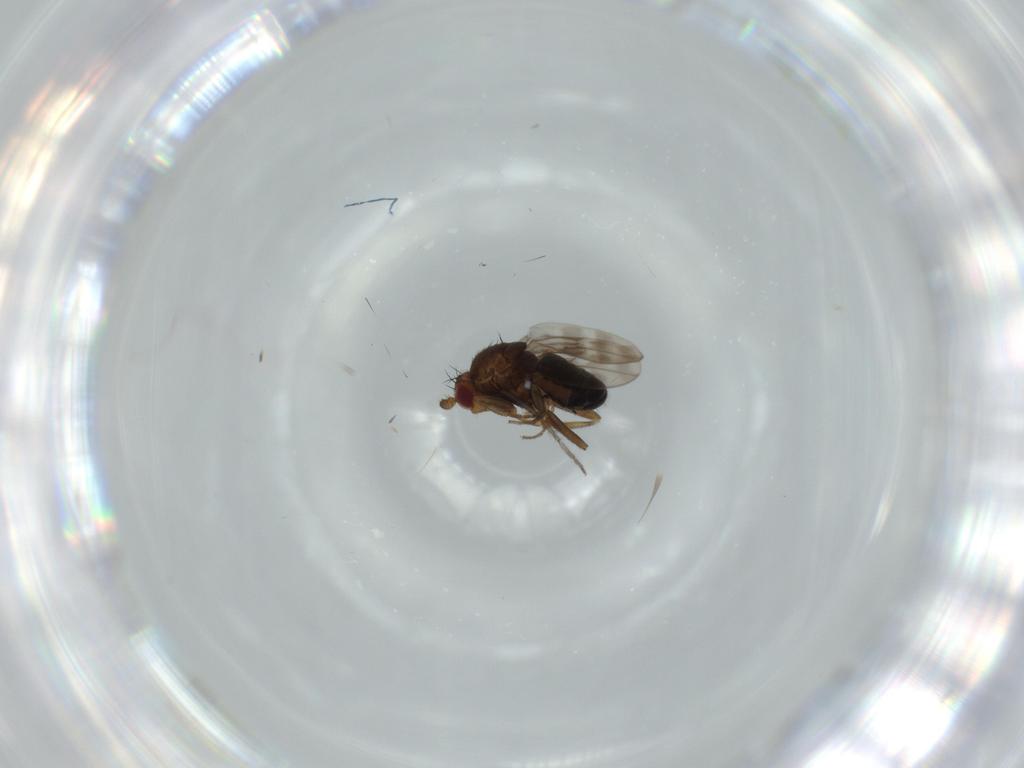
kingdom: Animalia
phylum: Arthropoda
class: Insecta
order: Diptera
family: Sphaeroceridae
